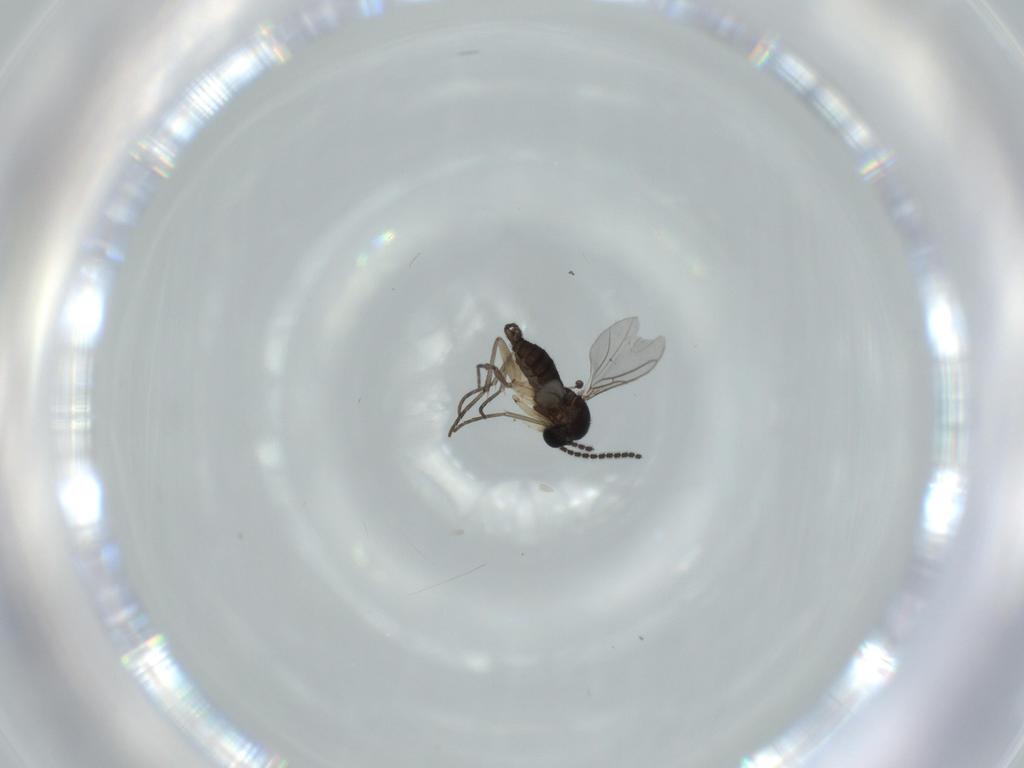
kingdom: Animalia
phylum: Arthropoda
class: Insecta
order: Diptera
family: Sciaridae
